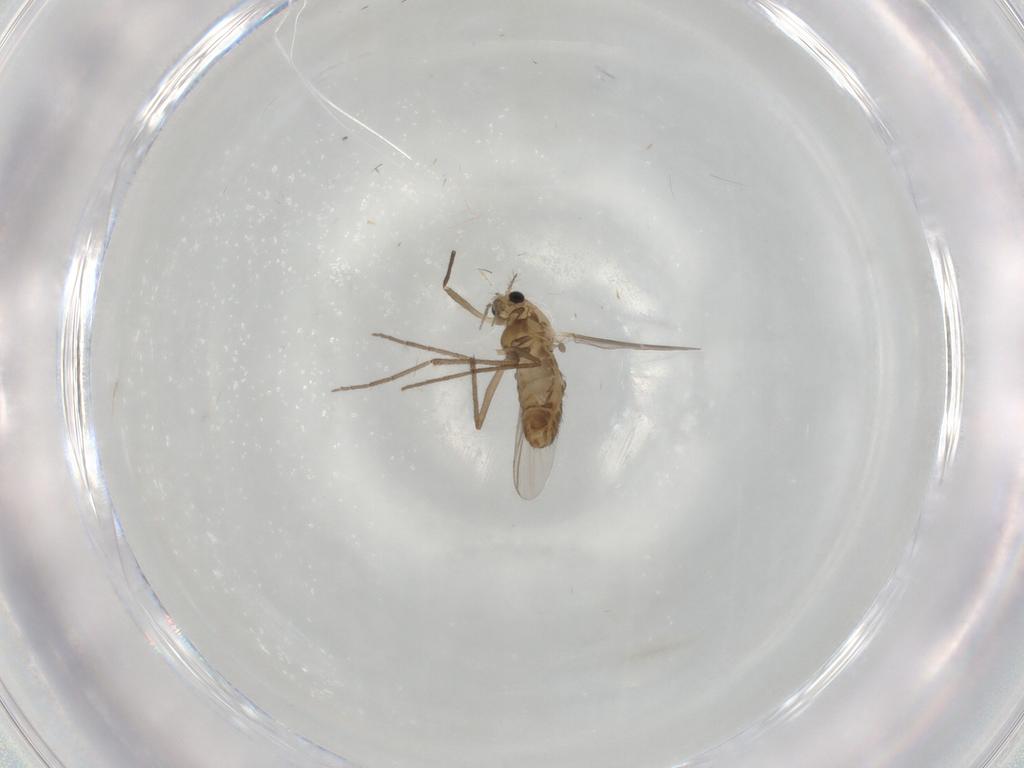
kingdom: Animalia
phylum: Arthropoda
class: Insecta
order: Diptera
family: Chironomidae
